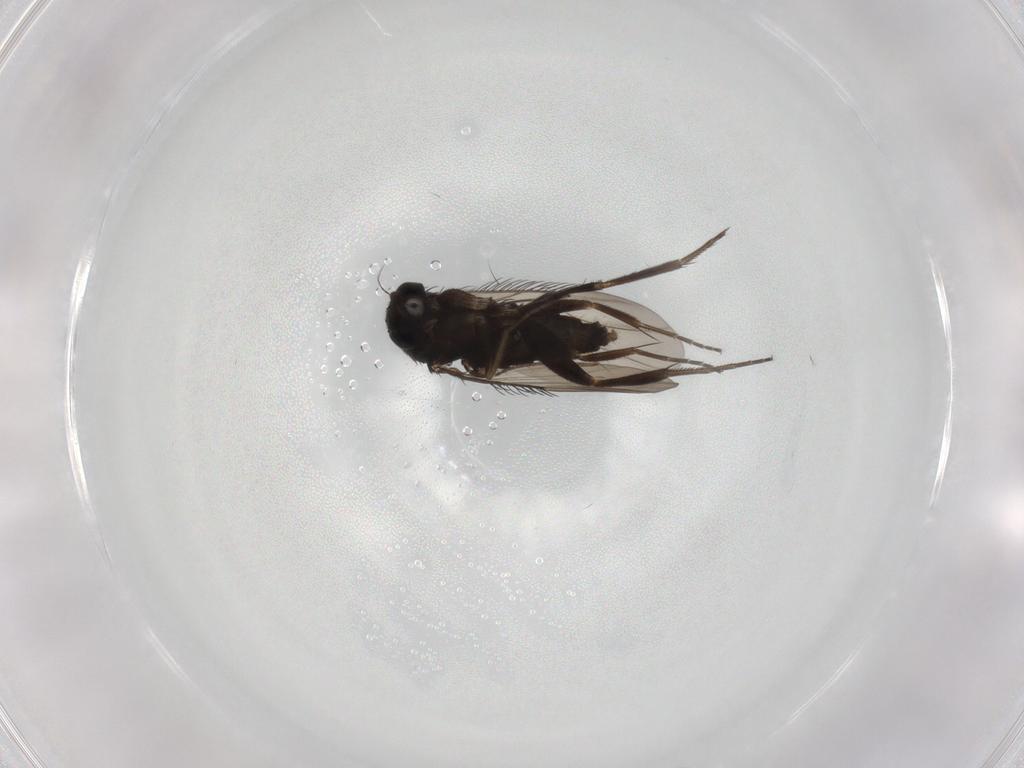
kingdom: Animalia
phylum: Arthropoda
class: Insecta
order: Diptera
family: Phoridae
